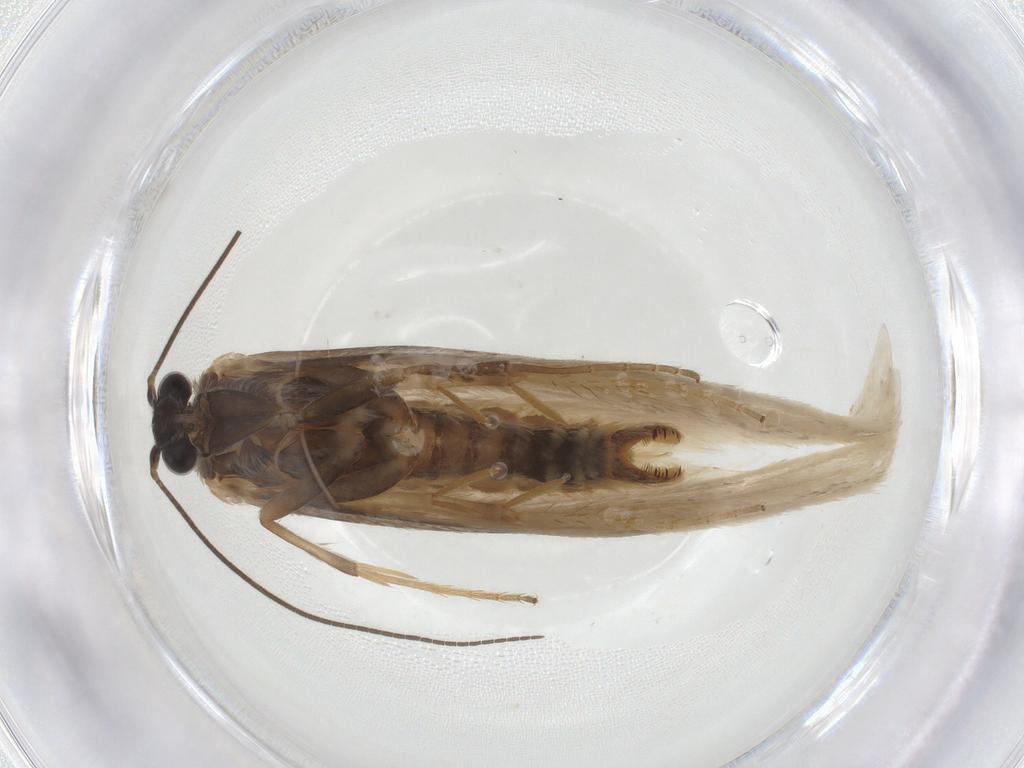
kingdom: Animalia
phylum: Arthropoda
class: Insecta
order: Lepidoptera
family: Tridentaformidae
